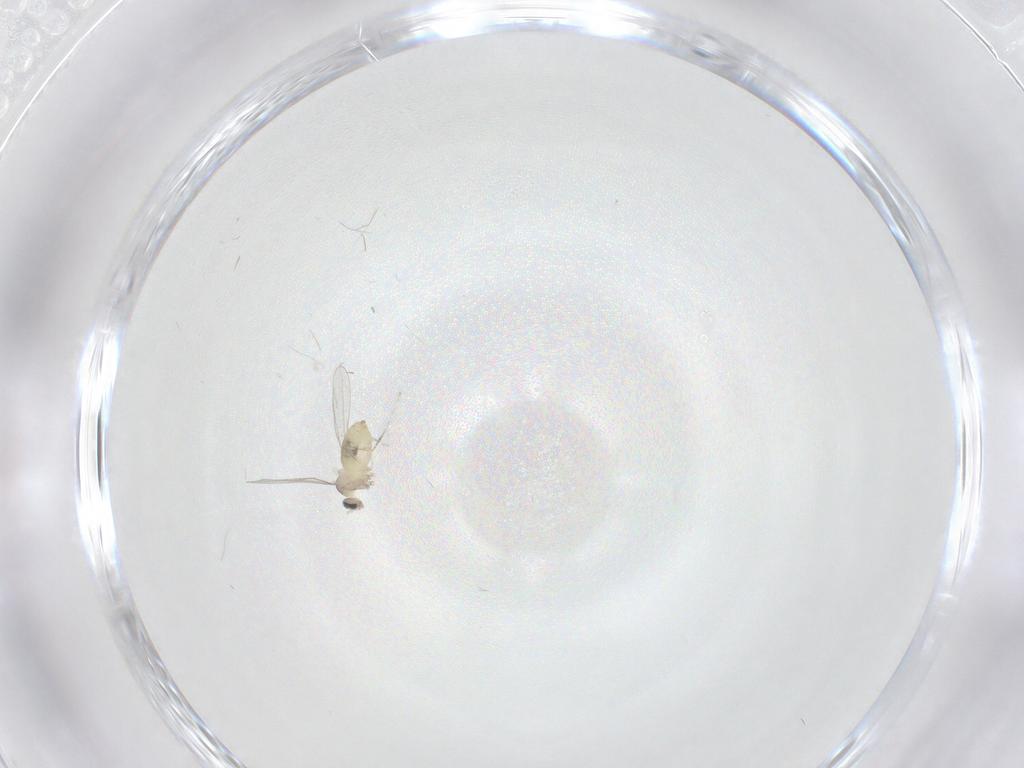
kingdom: Animalia
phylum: Arthropoda
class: Insecta
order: Diptera
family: Cecidomyiidae
